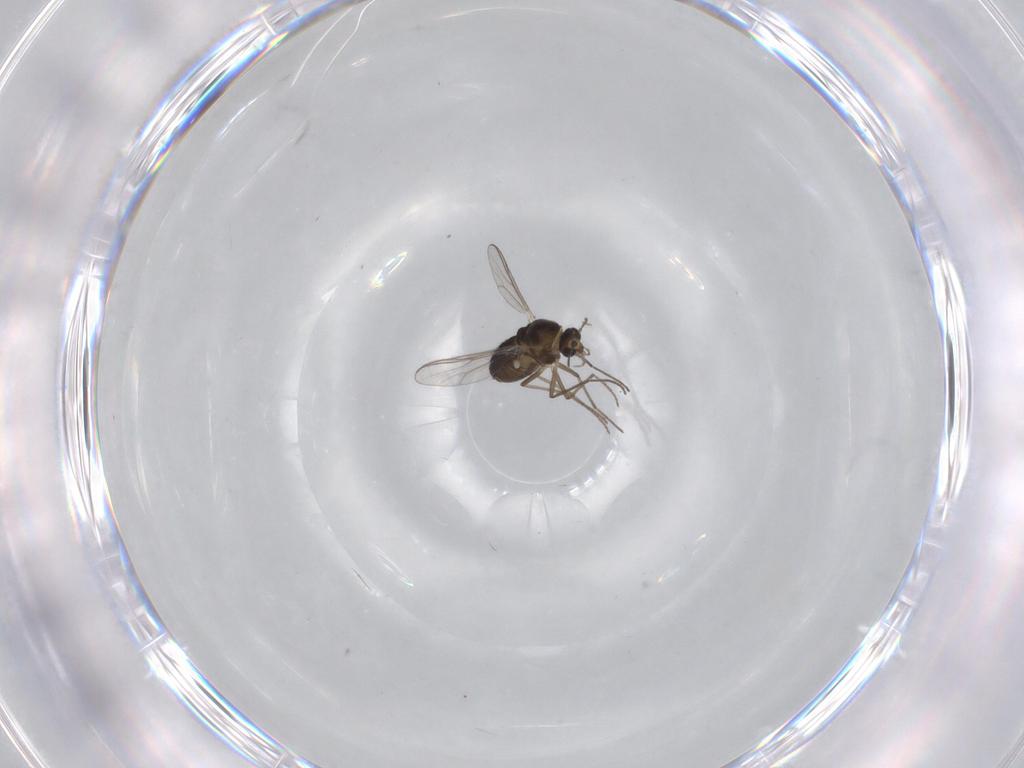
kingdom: Animalia
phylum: Arthropoda
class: Insecta
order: Diptera
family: Chironomidae
